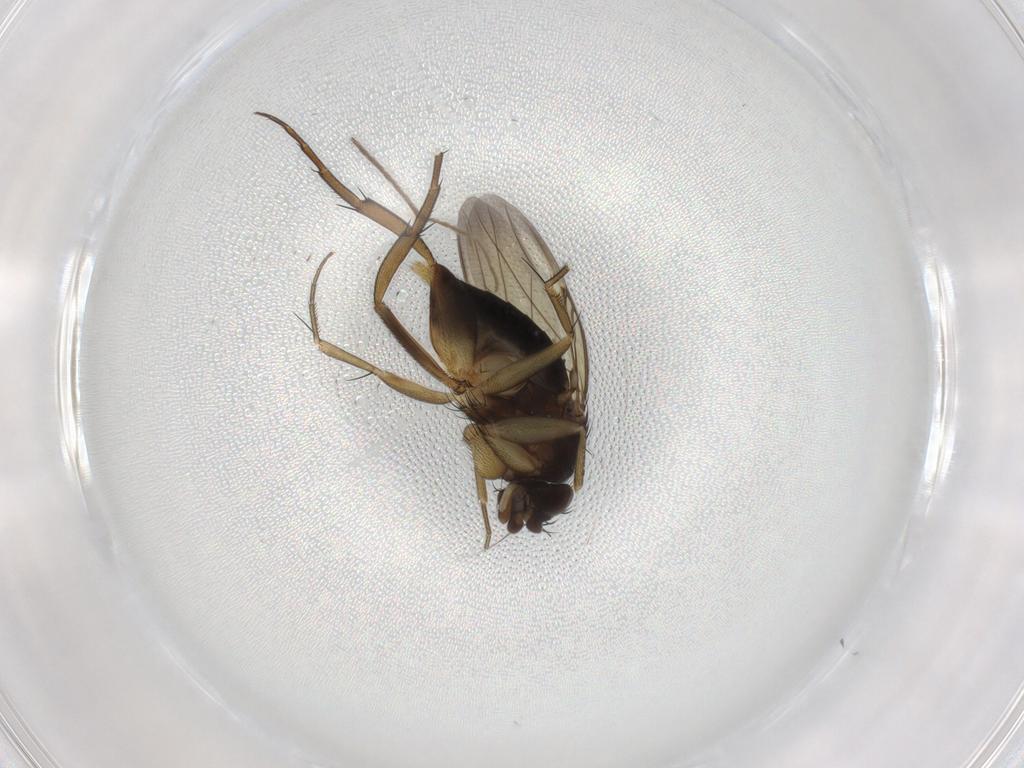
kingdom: Animalia
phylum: Arthropoda
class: Insecta
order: Diptera
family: Phoridae
